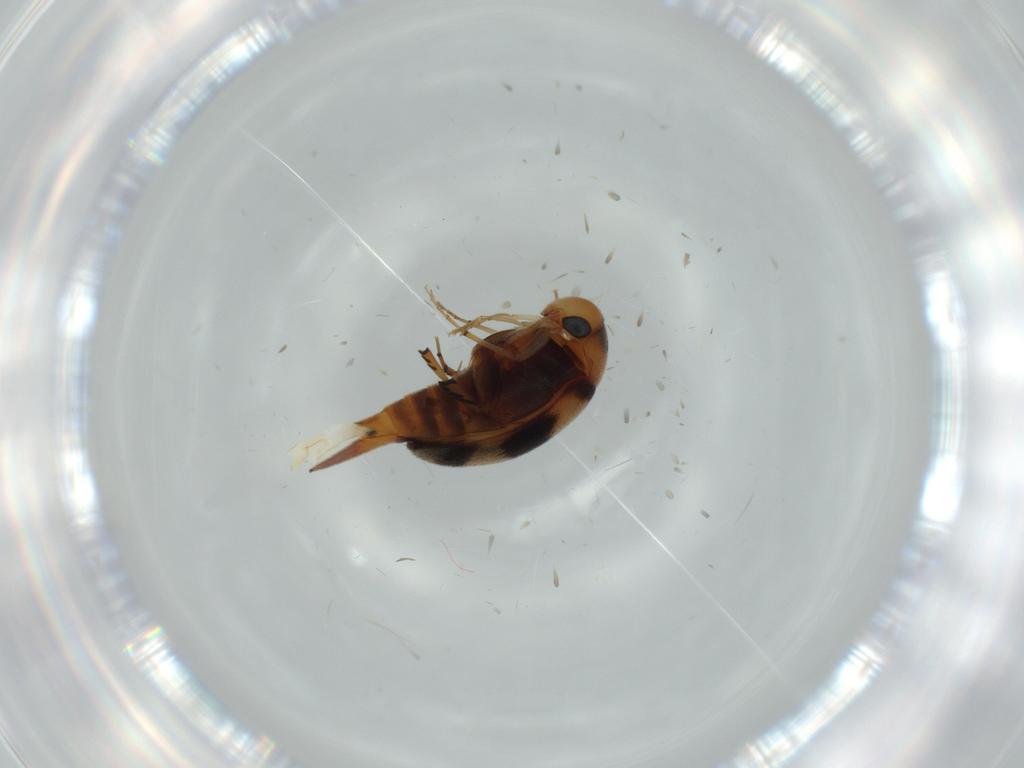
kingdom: Animalia
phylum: Arthropoda
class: Insecta
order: Coleoptera
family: Mordellidae
